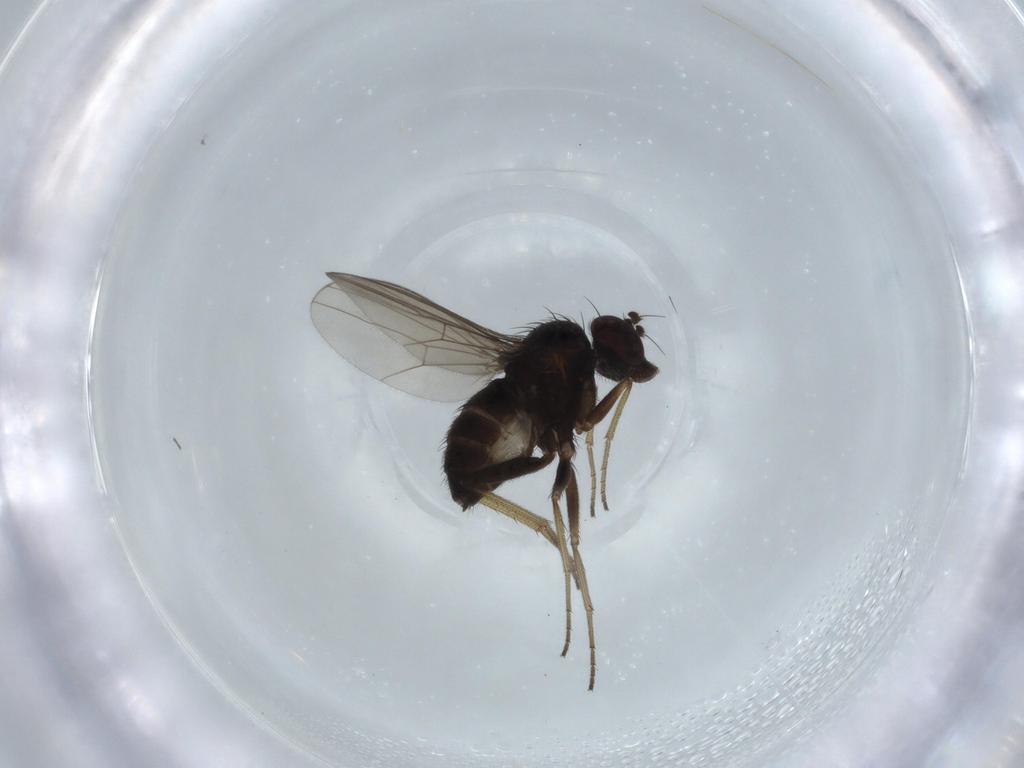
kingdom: Animalia
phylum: Arthropoda
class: Insecta
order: Diptera
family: Dolichopodidae
